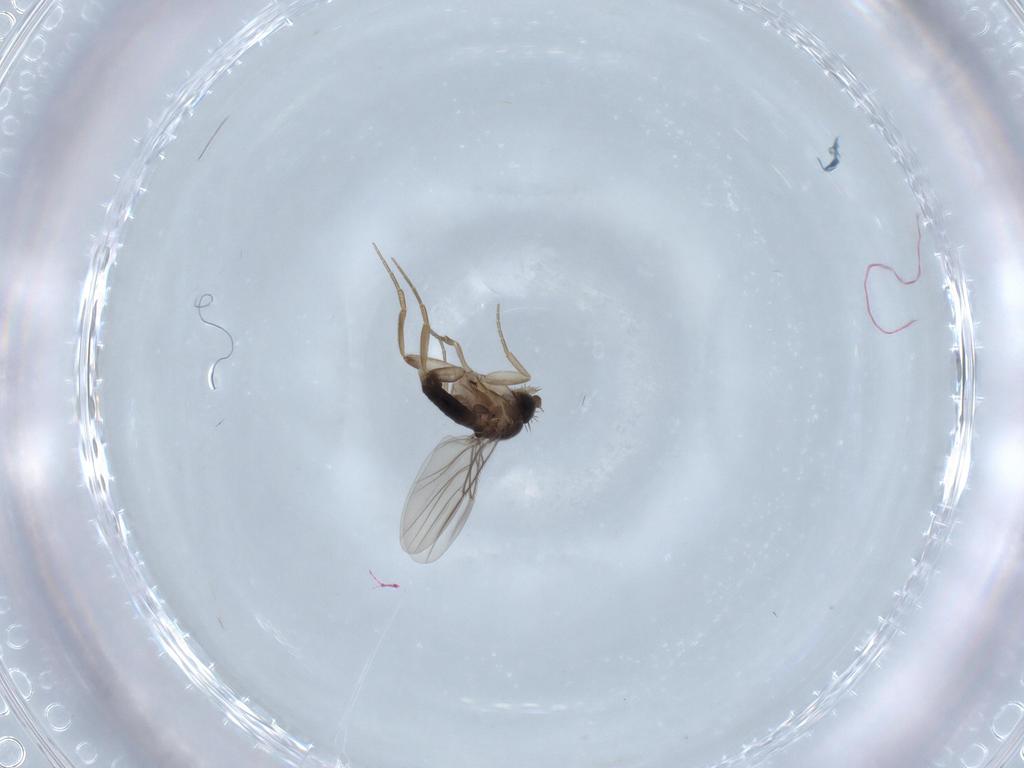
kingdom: Animalia
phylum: Arthropoda
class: Insecta
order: Diptera
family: Phoridae
